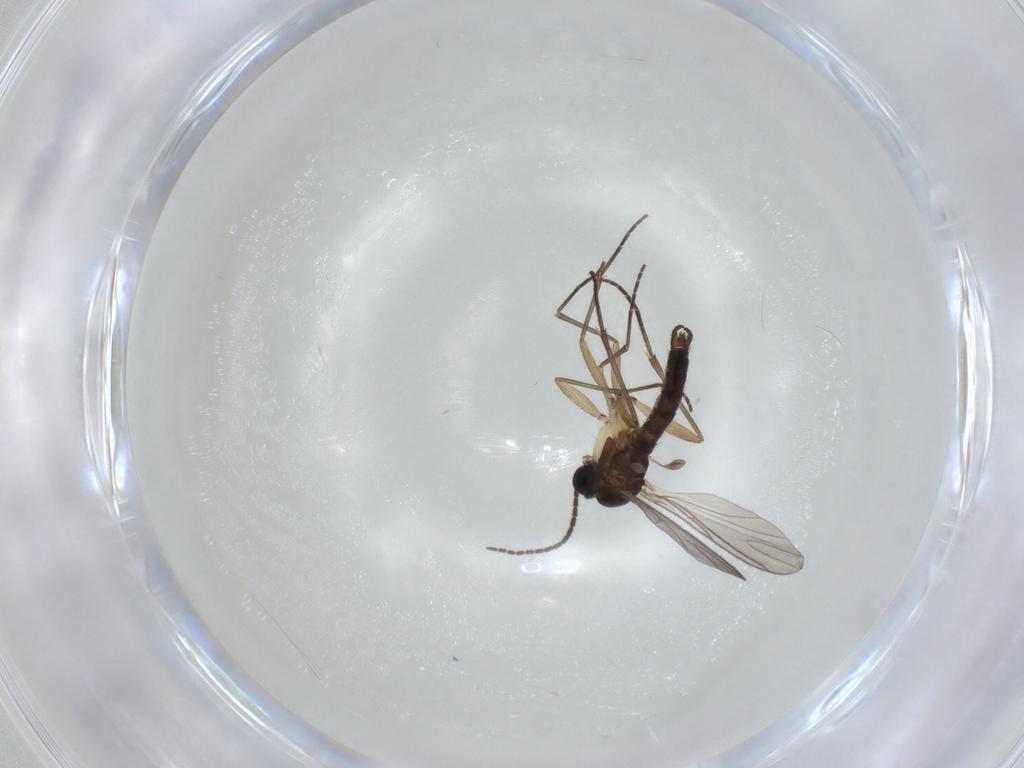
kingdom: Animalia
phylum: Arthropoda
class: Insecta
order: Diptera
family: Sciaridae
